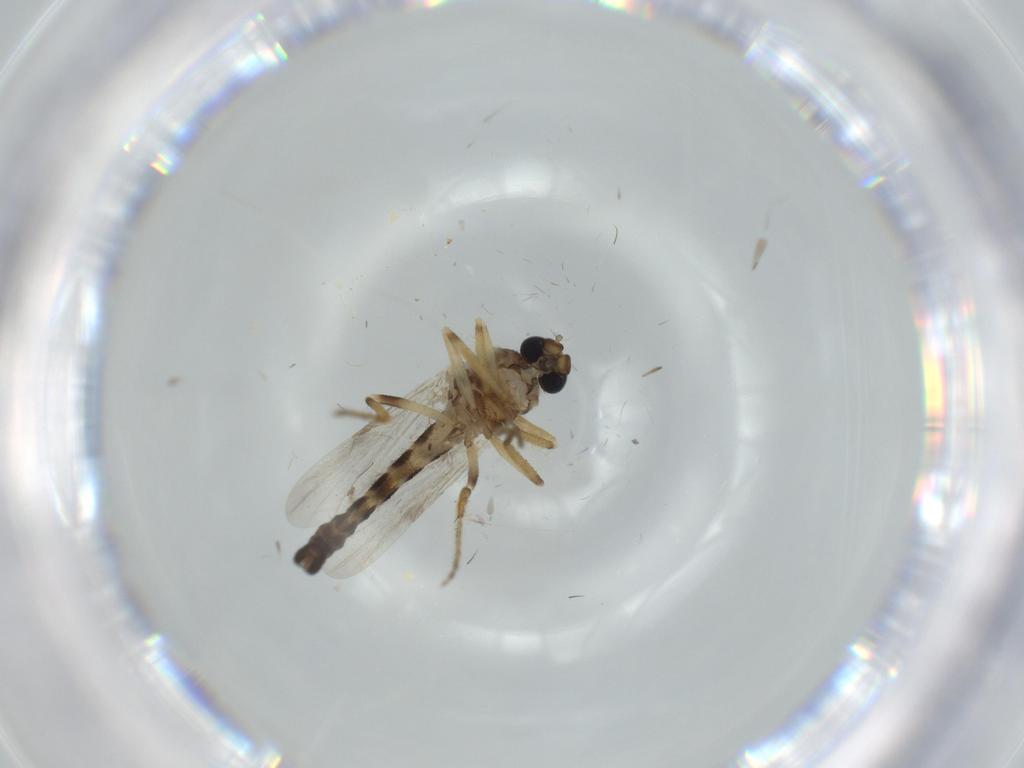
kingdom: Animalia
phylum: Arthropoda
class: Insecta
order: Diptera
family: Ceratopogonidae
